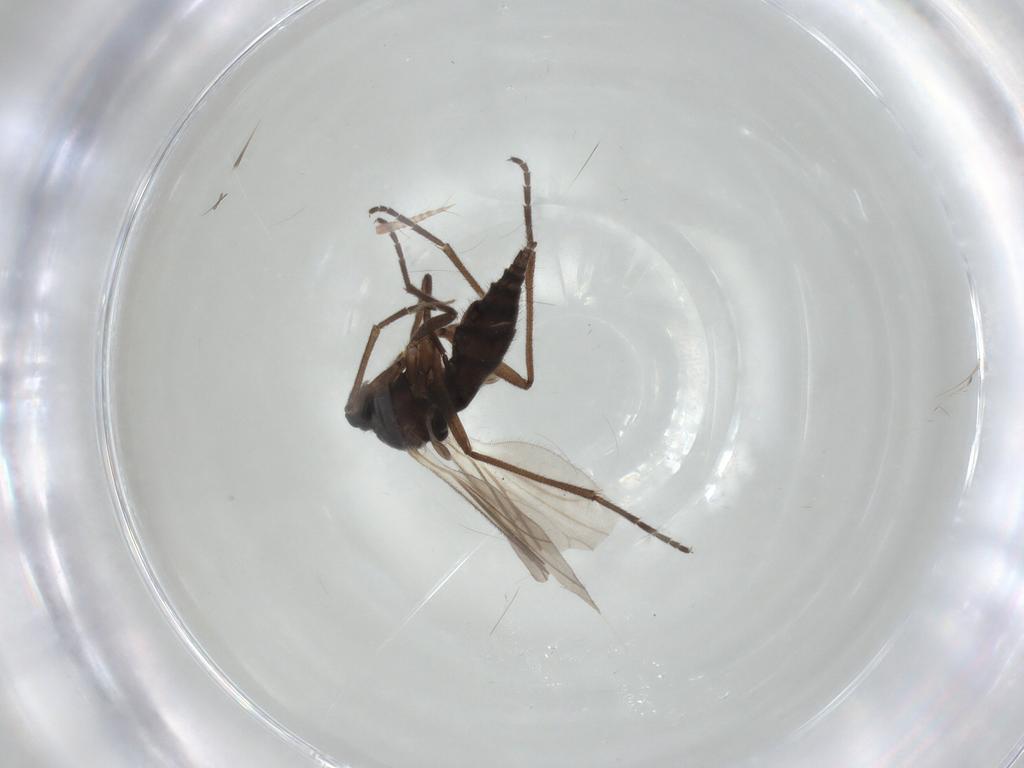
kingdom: Animalia
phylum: Arthropoda
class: Insecta
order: Diptera
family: Sciaridae
